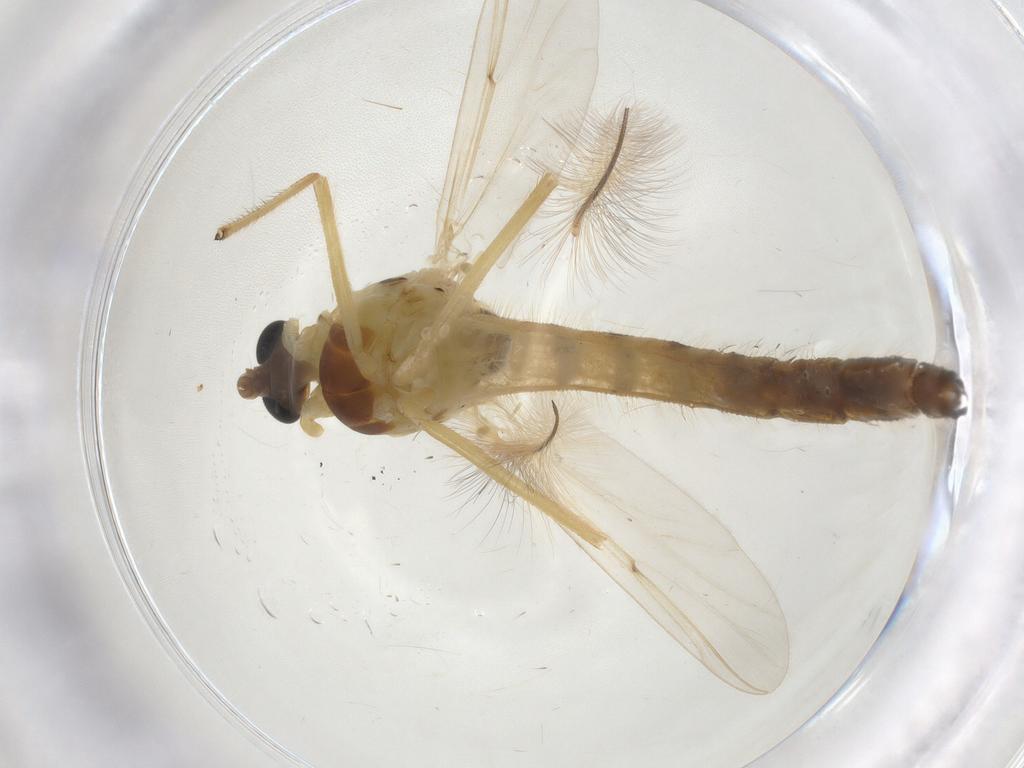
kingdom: Animalia
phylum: Arthropoda
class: Insecta
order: Diptera
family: Chironomidae
